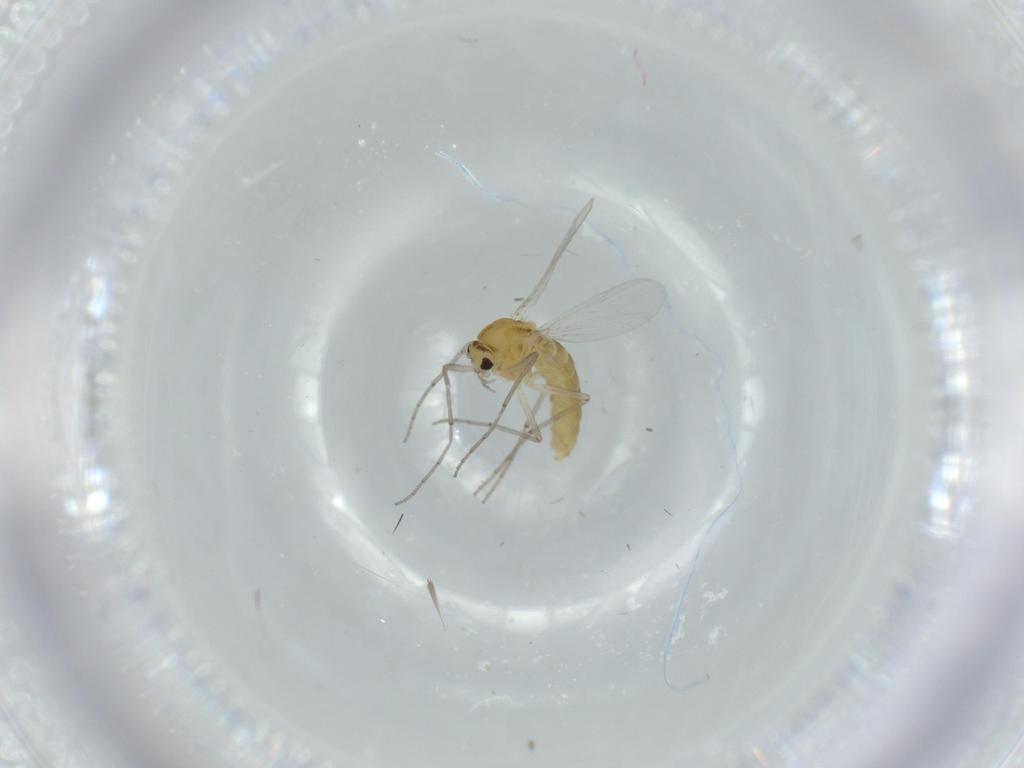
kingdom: Animalia
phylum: Arthropoda
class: Insecta
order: Diptera
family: Chironomidae
